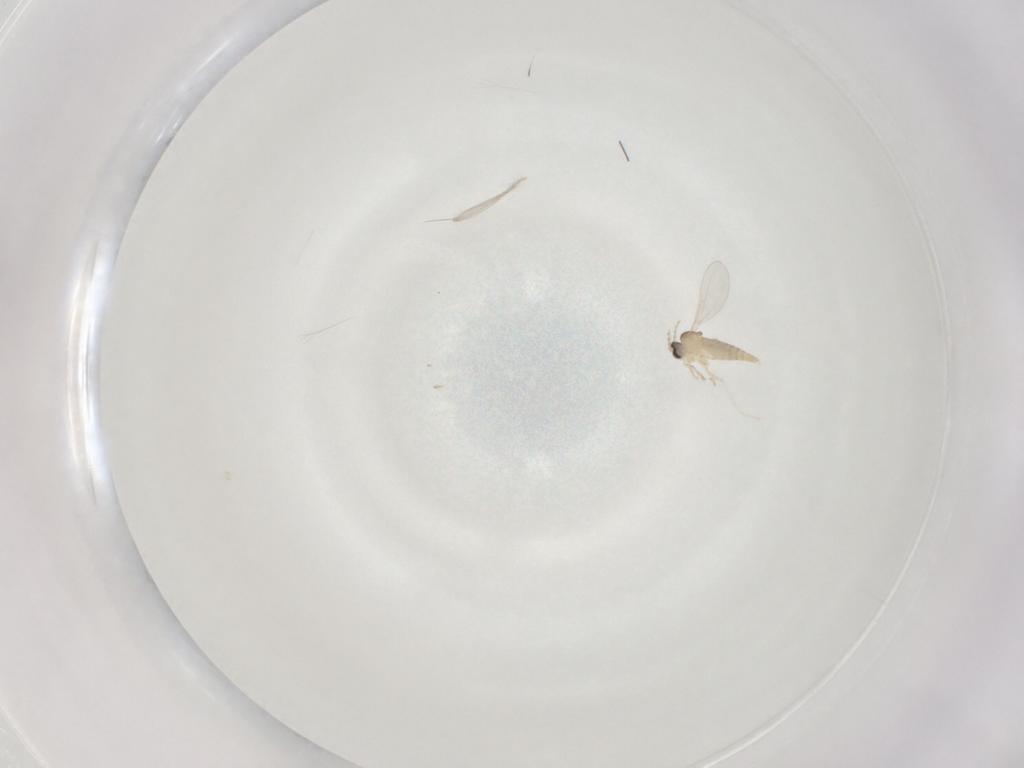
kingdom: Animalia
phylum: Arthropoda
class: Insecta
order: Diptera
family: Cecidomyiidae
